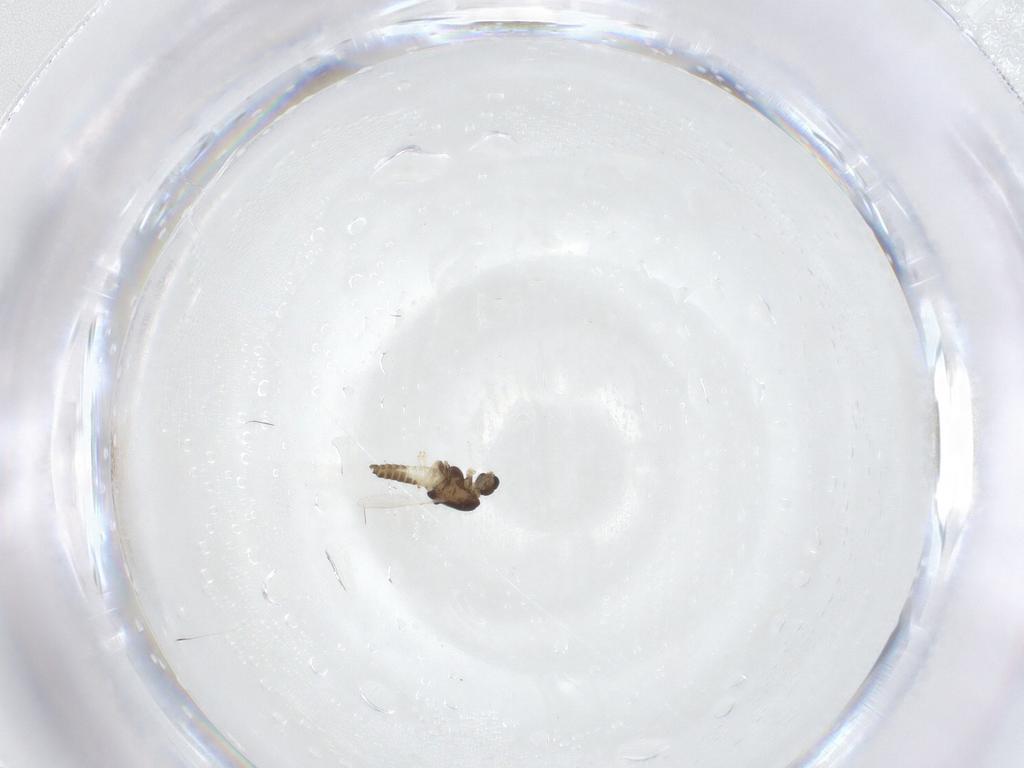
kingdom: Animalia
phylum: Arthropoda
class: Insecta
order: Diptera
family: Chironomidae
